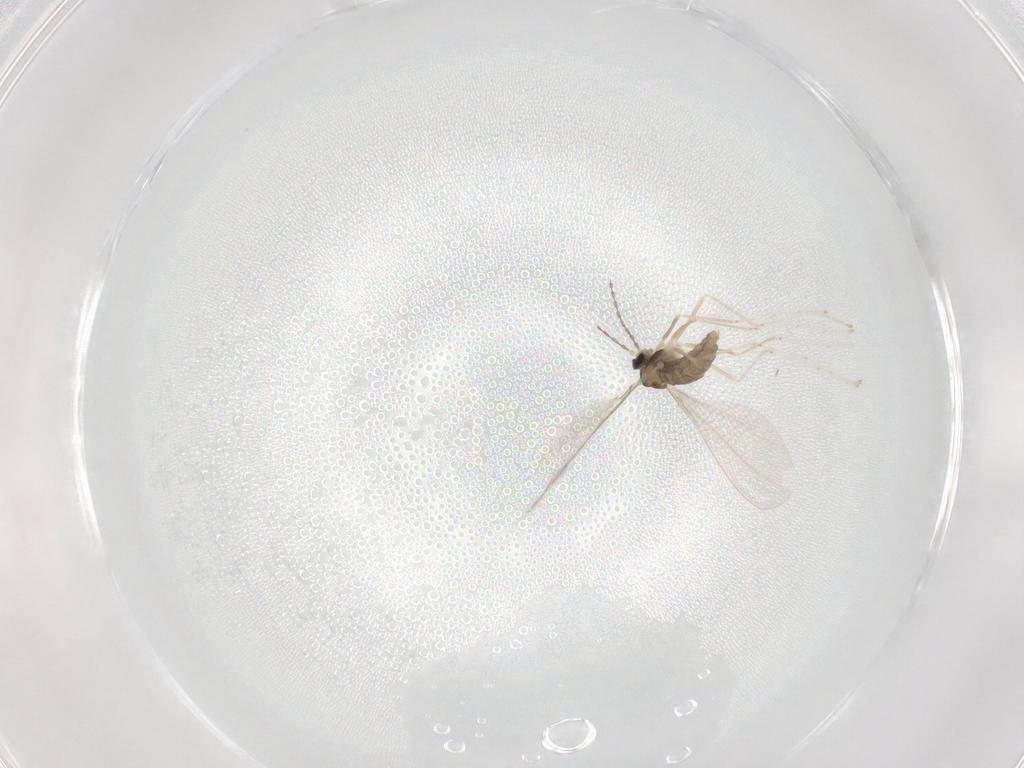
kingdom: Animalia
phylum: Arthropoda
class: Insecta
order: Diptera
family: Cecidomyiidae
